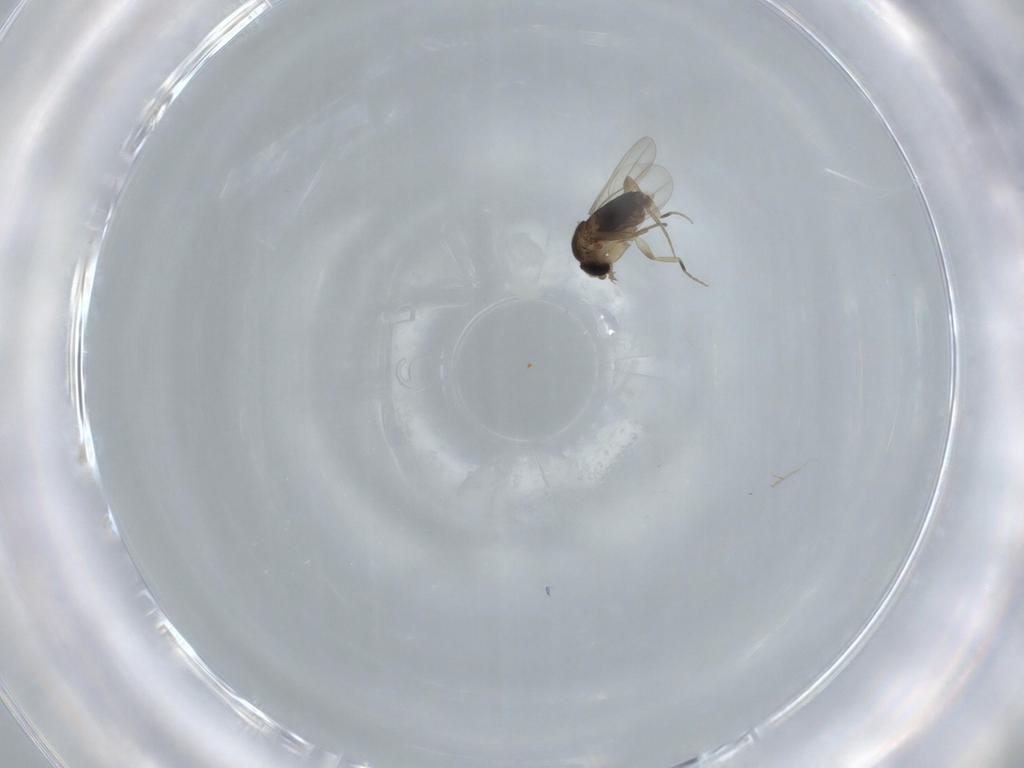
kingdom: Animalia
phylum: Arthropoda
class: Insecta
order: Diptera
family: Phoridae
